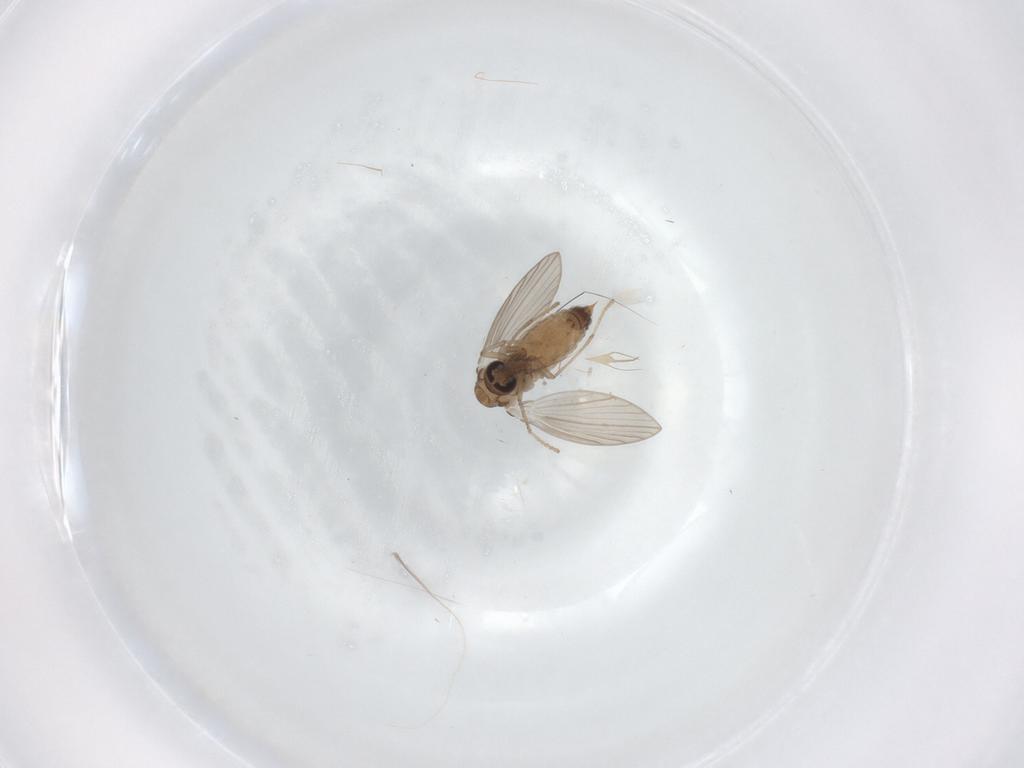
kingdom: Animalia
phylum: Arthropoda
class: Insecta
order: Diptera
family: Psychodidae
